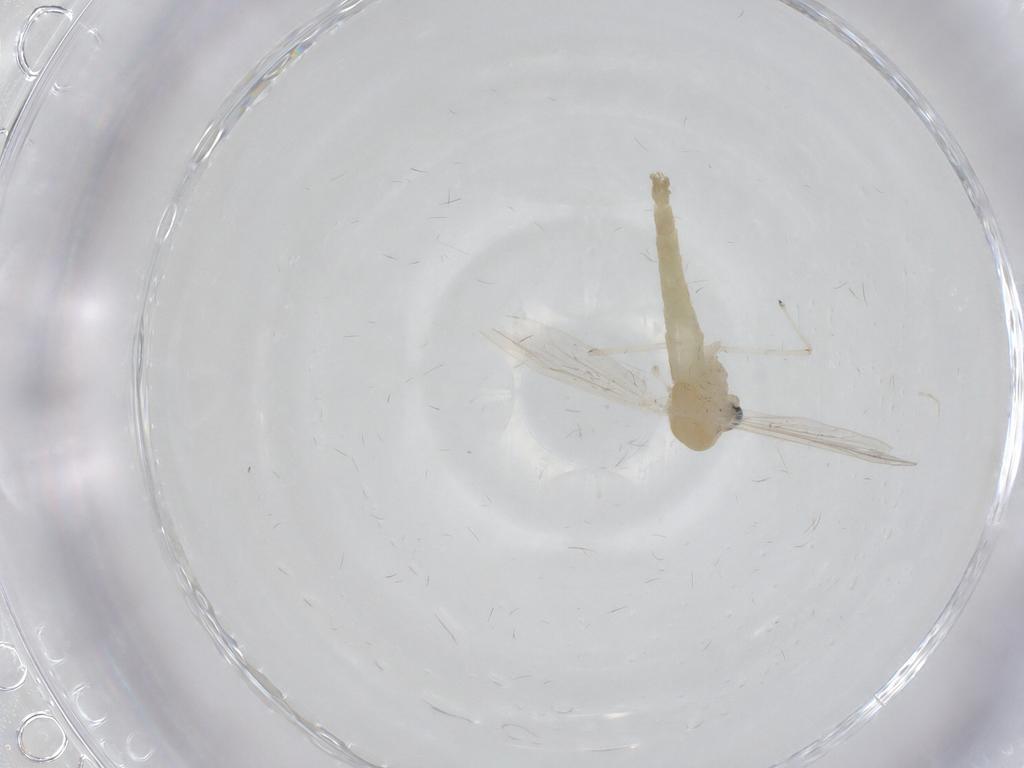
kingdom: Animalia
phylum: Arthropoda
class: Insecta
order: Diptera
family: Chironomidae
